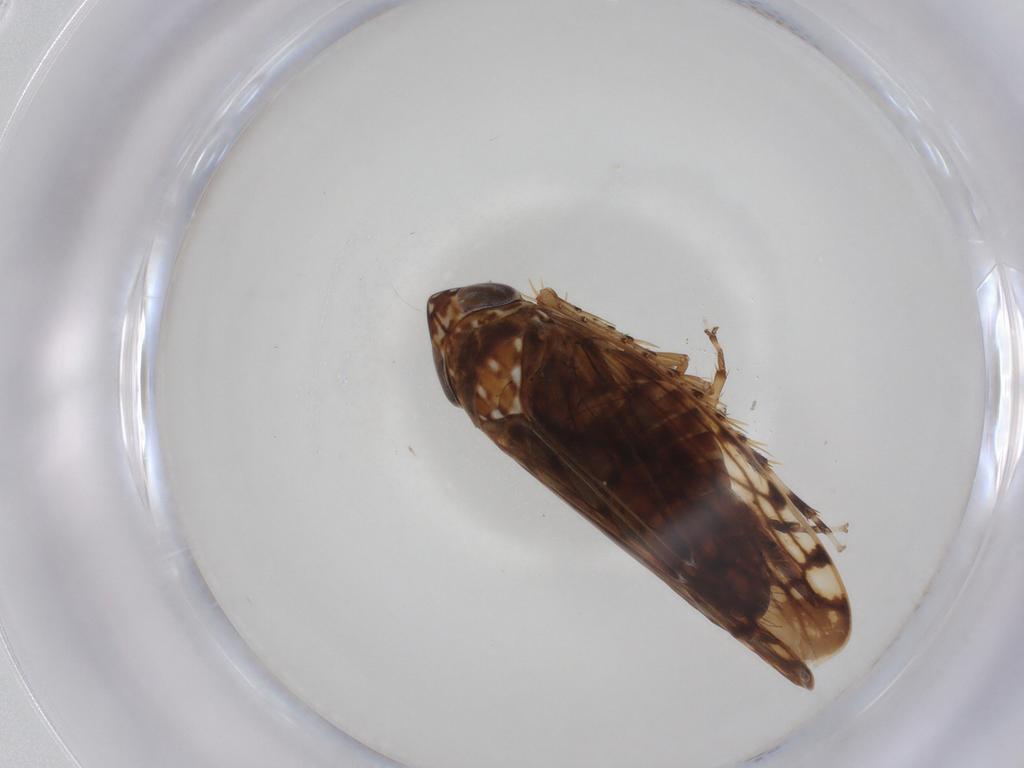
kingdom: Animalia
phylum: Arthropoda
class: Insecta
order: Hemiptera
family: Cicadellidae
